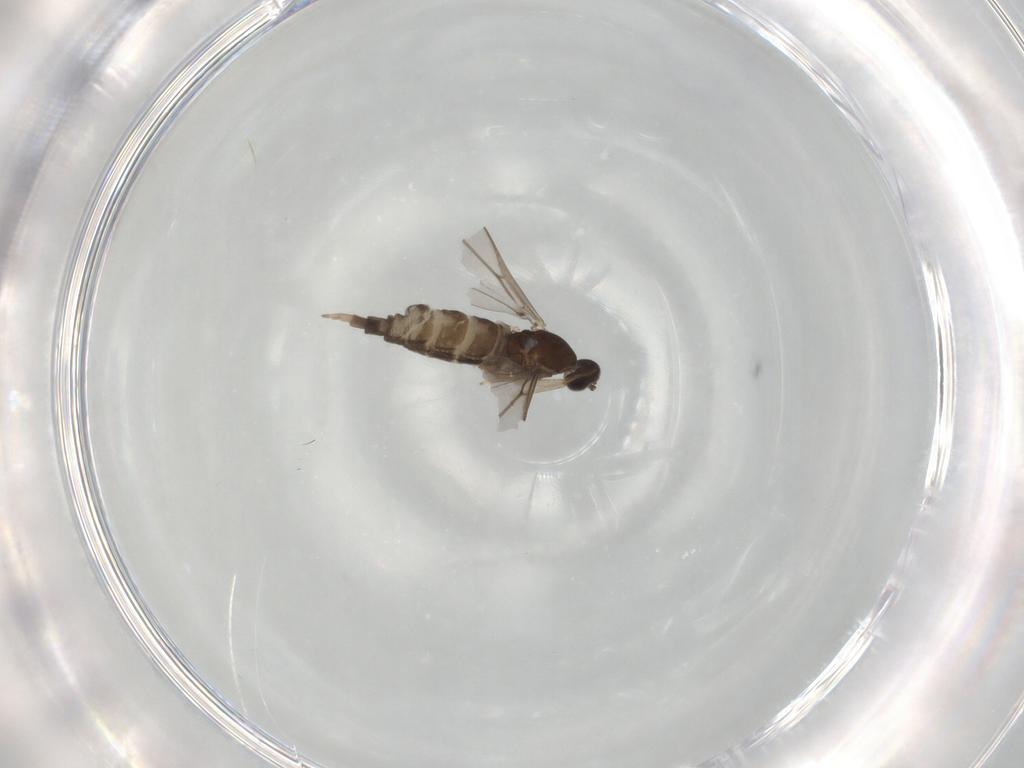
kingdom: Animalia
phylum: Arthropoda
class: Insecta
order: Diptera
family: Cecidomyiidae
